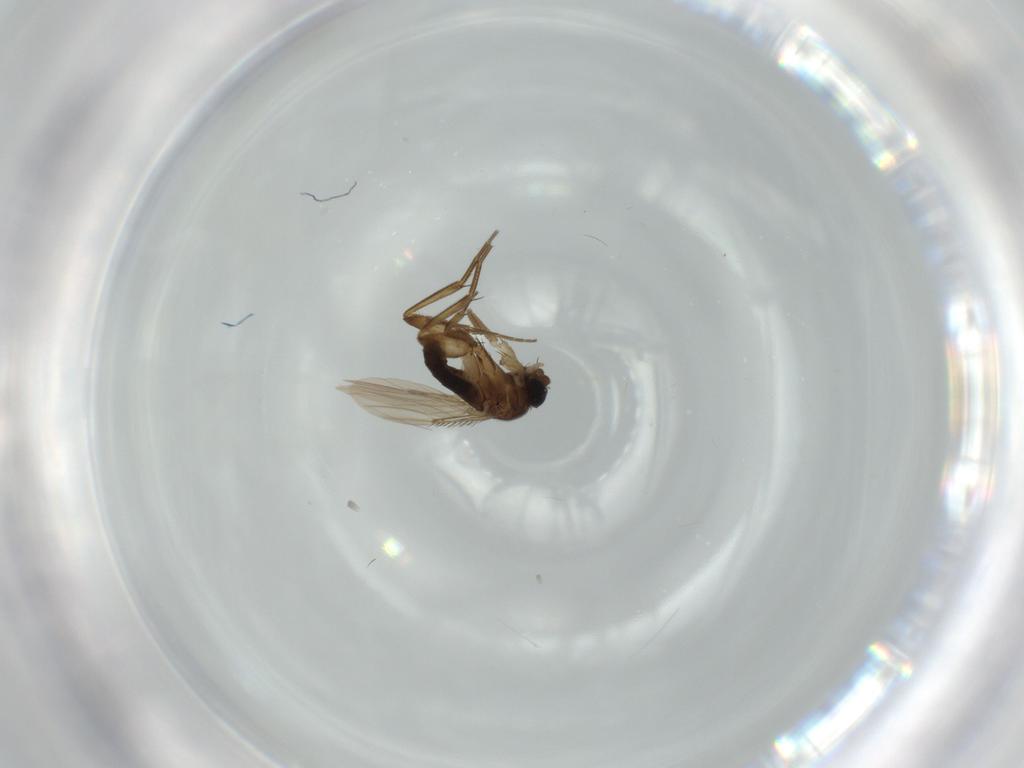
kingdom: Animalia
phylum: Arthropoda
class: Insecta
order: Diptera
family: Phoridae
